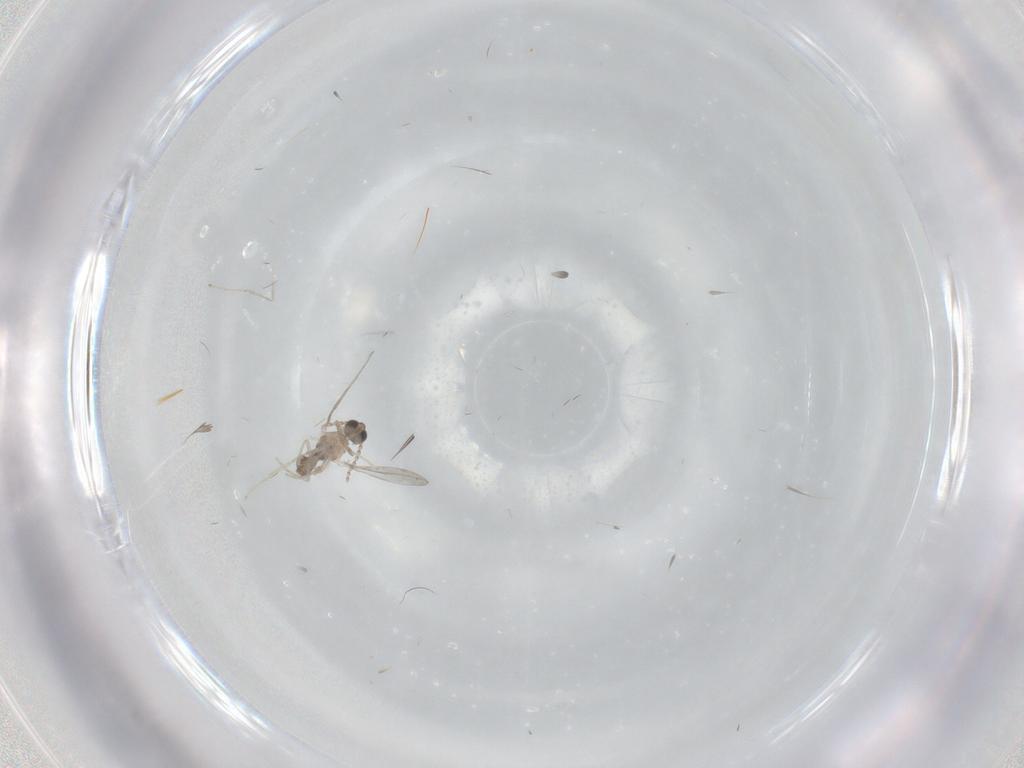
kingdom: Animalia
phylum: Arthropoda
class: Insecta
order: Diptera
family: Cecidomyiidae
